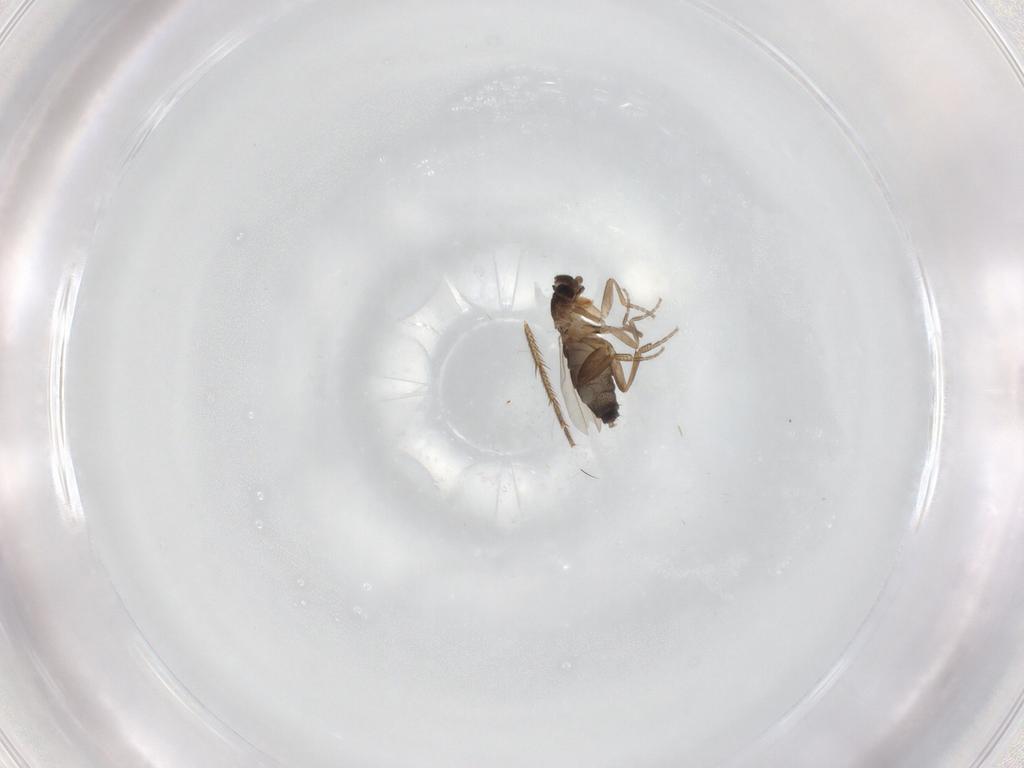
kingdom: Animalia
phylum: Arthropoda
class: Insecta
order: Diptera
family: Phoridae
